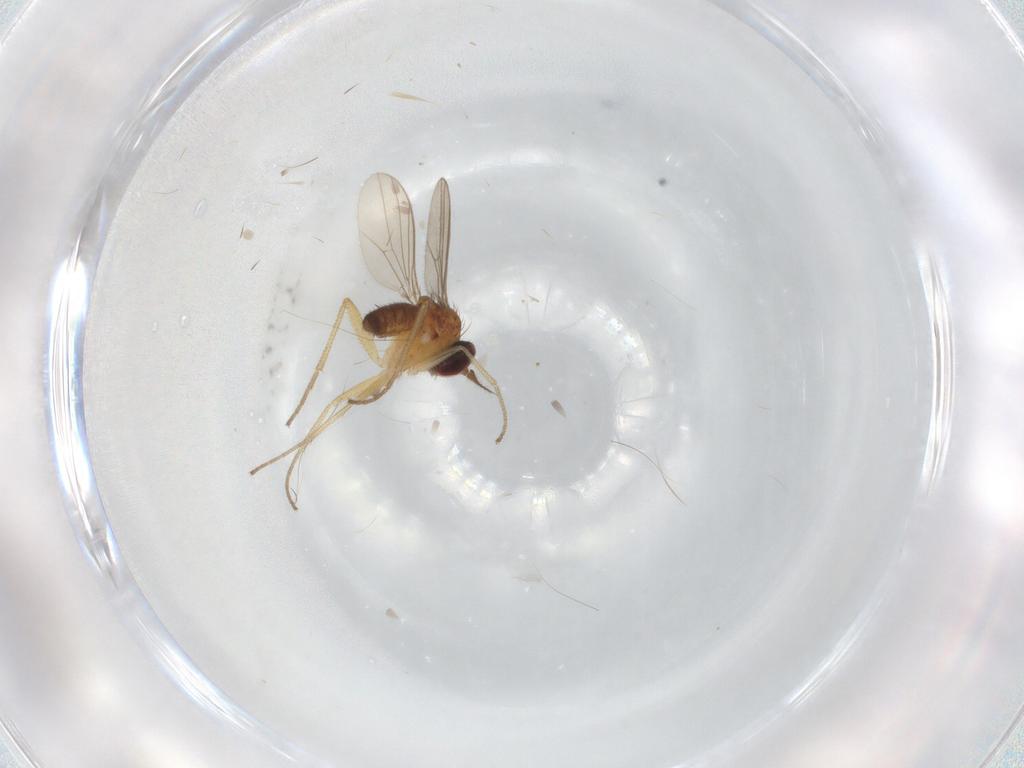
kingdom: Animalia
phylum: Arthropoda
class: Insecta
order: Diptera
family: Dolichopodidae
